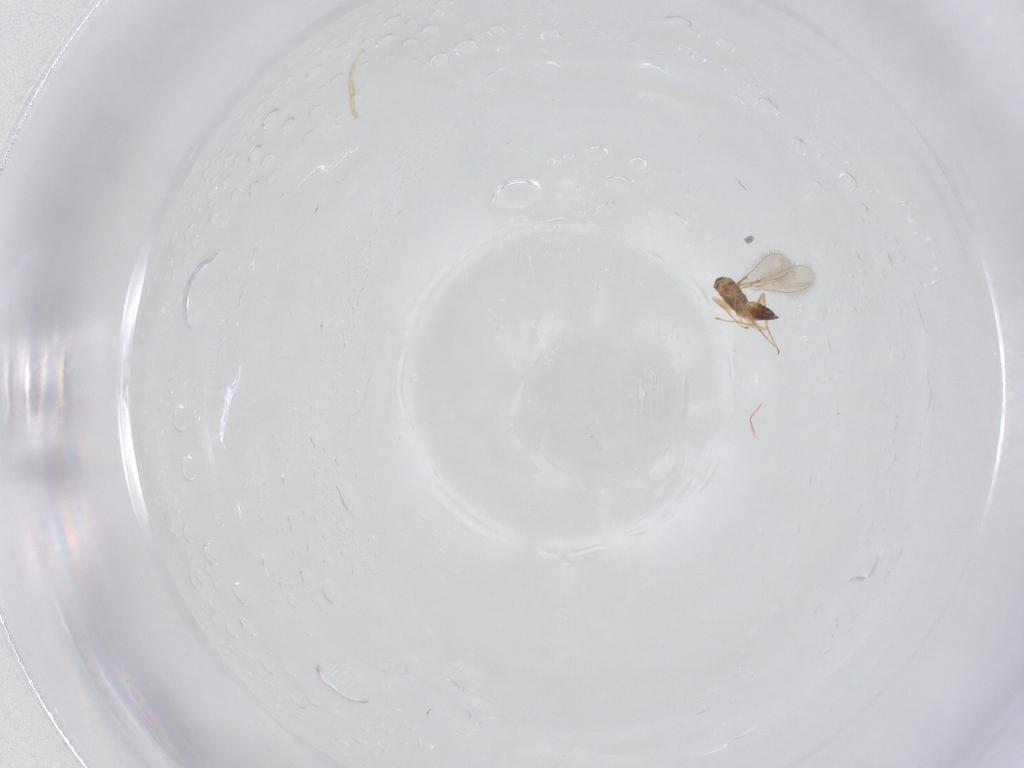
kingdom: Animalia
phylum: Arthropoda
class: Insecta
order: Hymenoptera
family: Mymaridae
